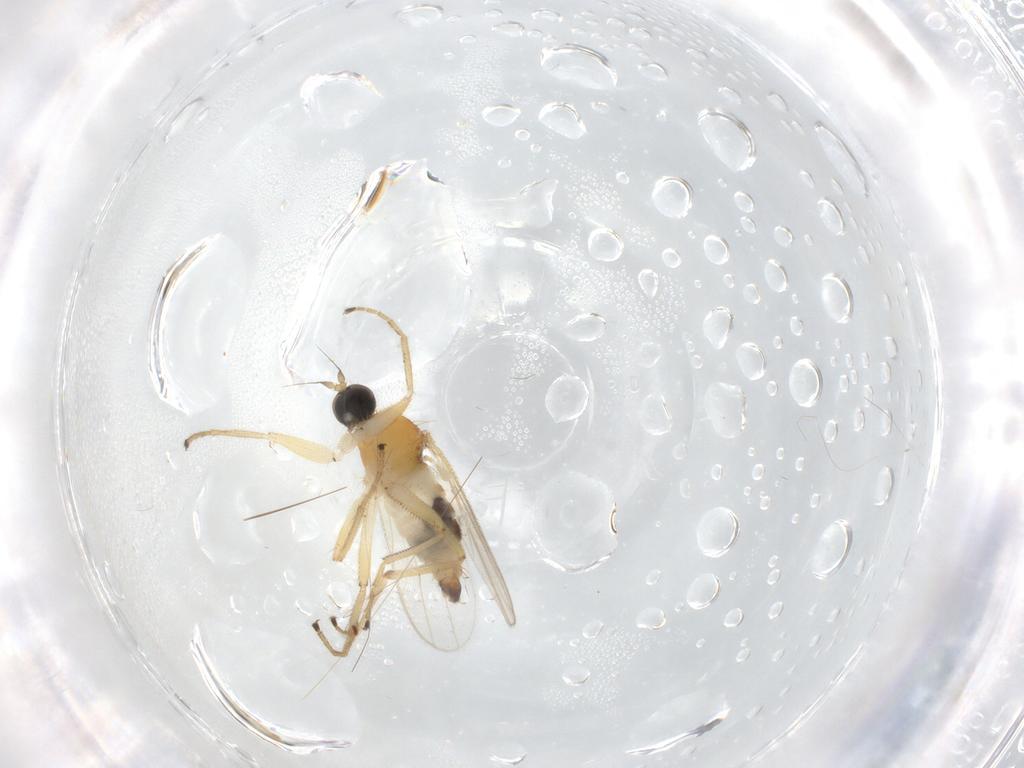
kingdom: Animalia
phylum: Arthropoda
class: Insecta
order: Diptera
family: Hybotidae
